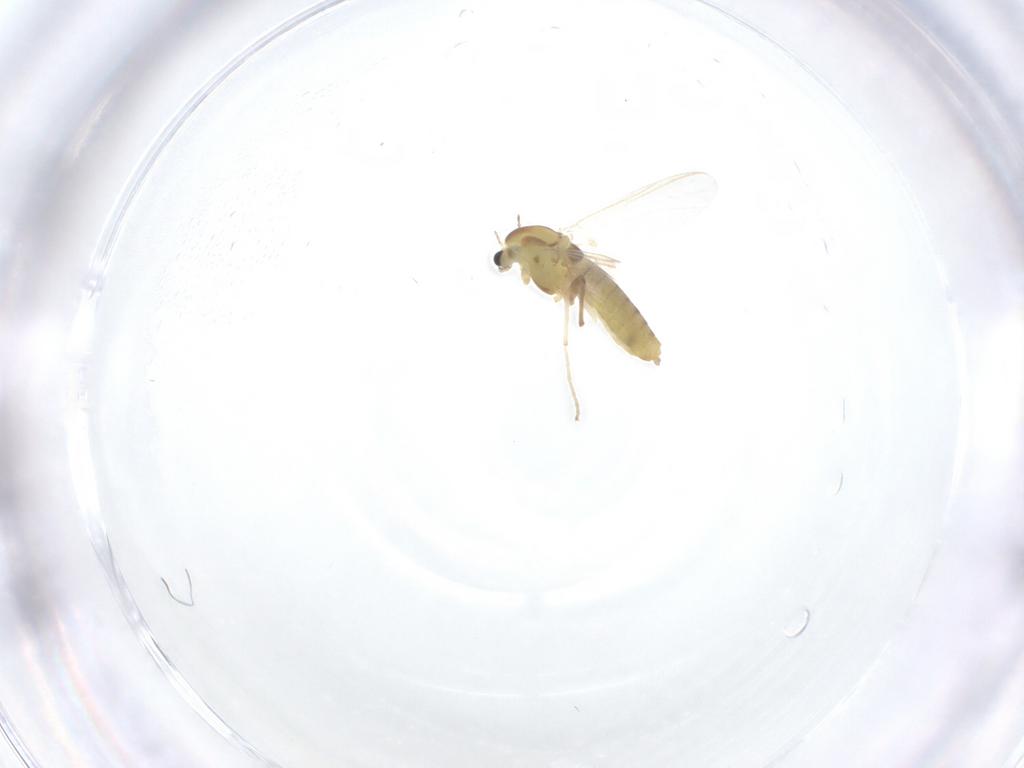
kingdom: Animalia
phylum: Arthropoda
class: Insecta
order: Diptera
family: Chironomidae
